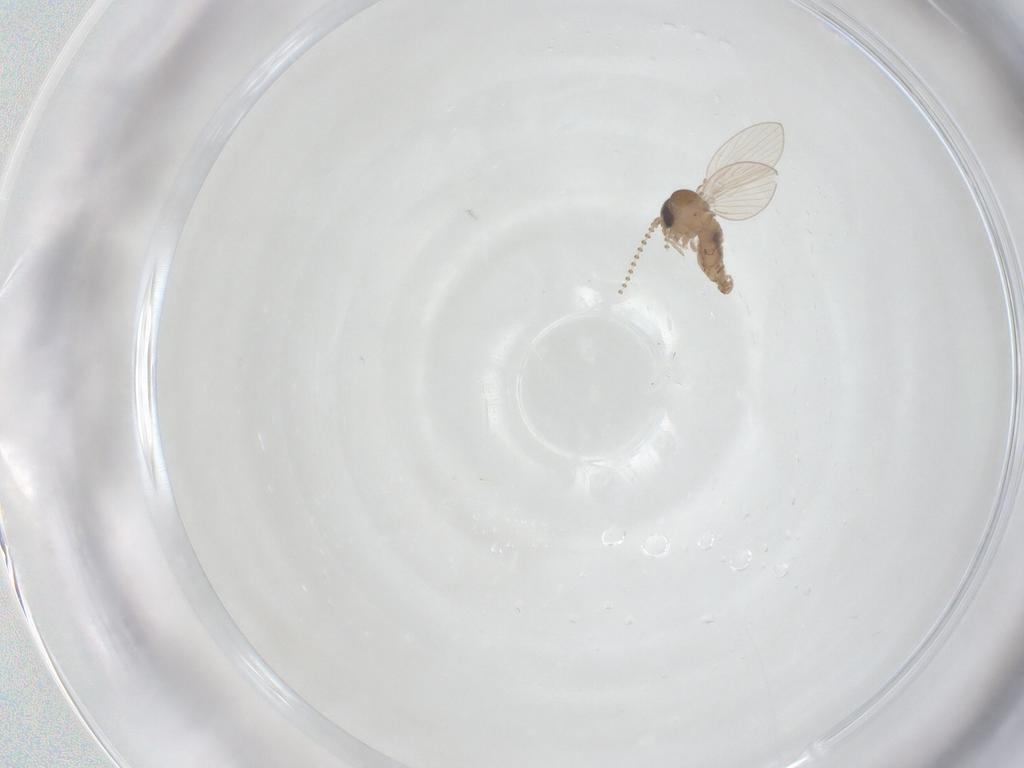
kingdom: Animalia
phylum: Arthropoda
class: Insecta
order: Diptera
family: Psychodidae
